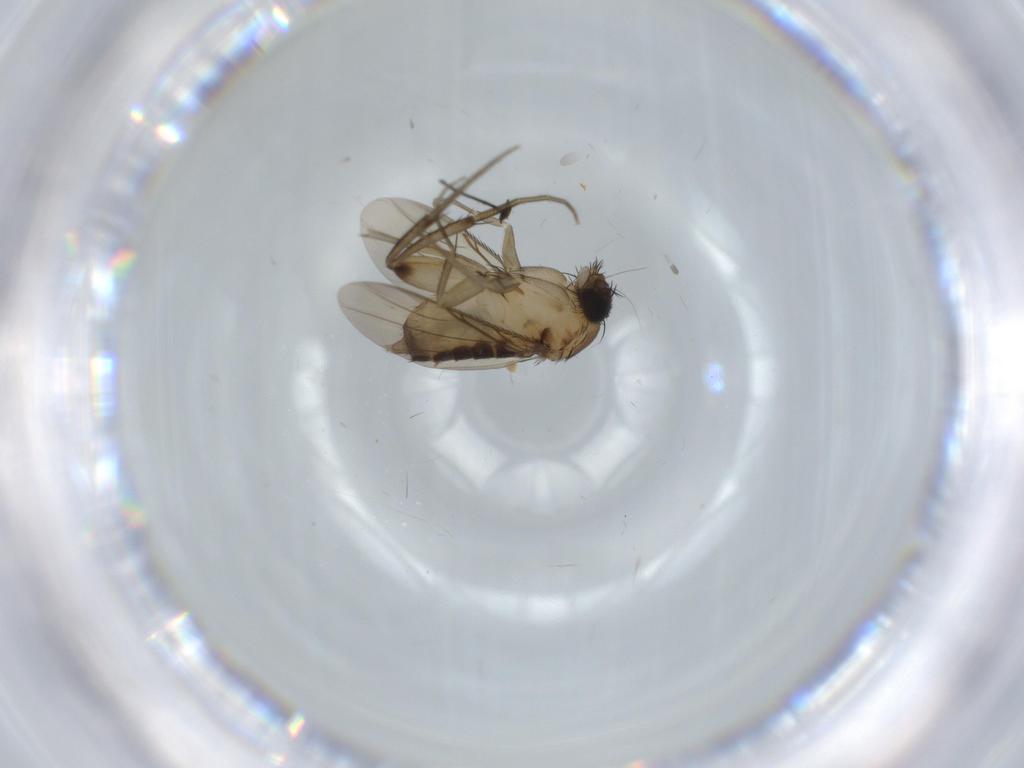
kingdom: Animalia
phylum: Arthropoda
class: Insecta
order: Diptera
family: Phoridae
